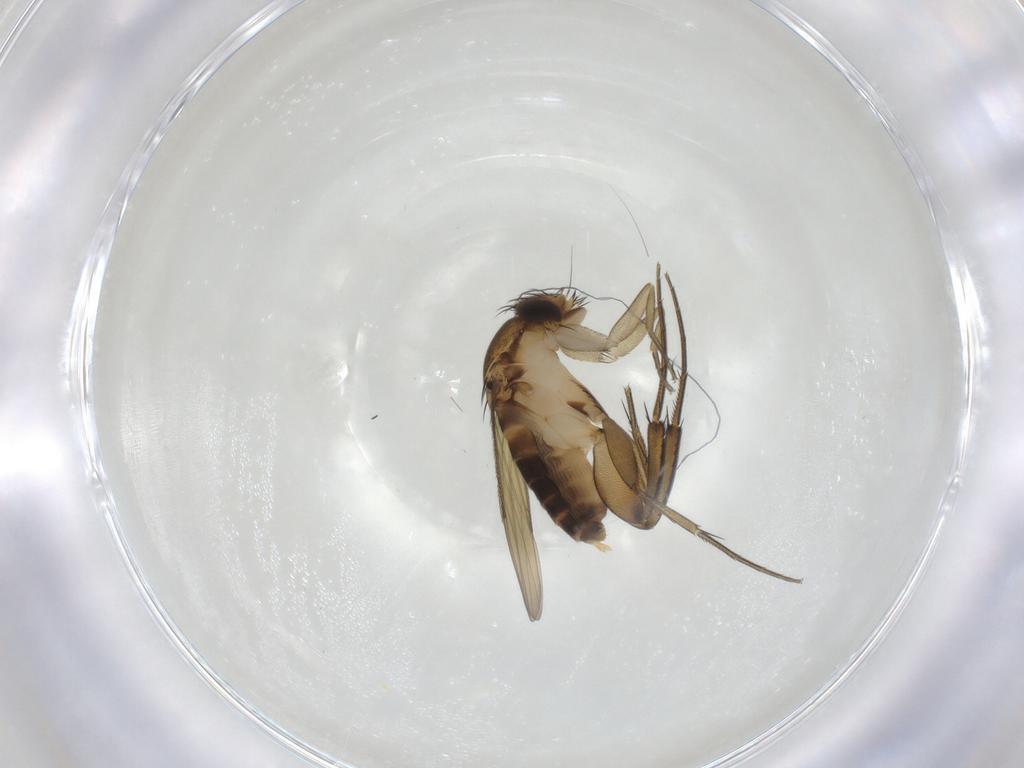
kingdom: Animalia
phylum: Arthropoda
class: Insecta
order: Diptera
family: Phoridae
